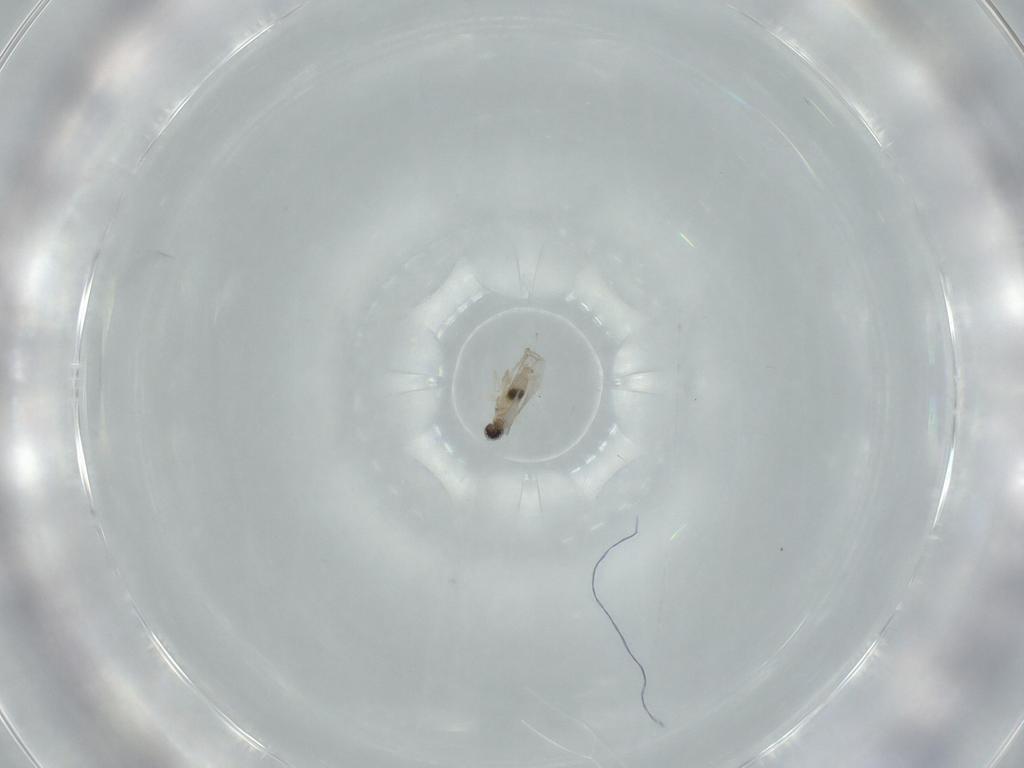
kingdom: Animalia
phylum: Arthropoda
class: Insecta
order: Diptera
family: Cecidomyiidae
